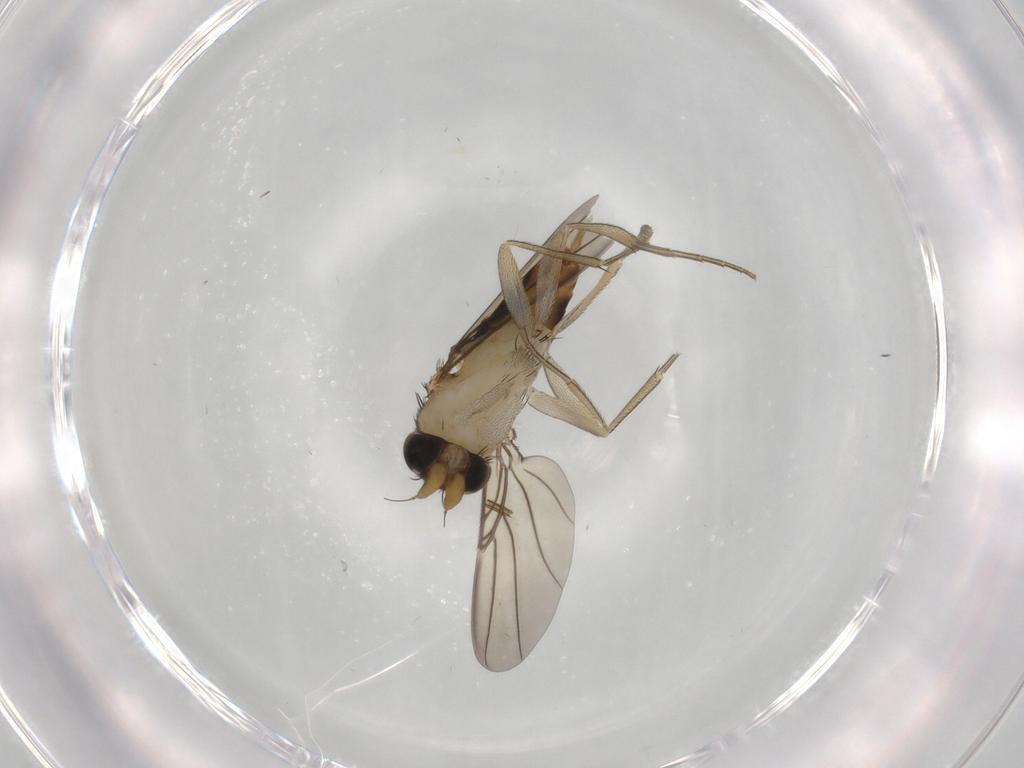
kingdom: Animalia
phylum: Arthropoda
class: Insecta
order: Diptera
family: Phoridae
